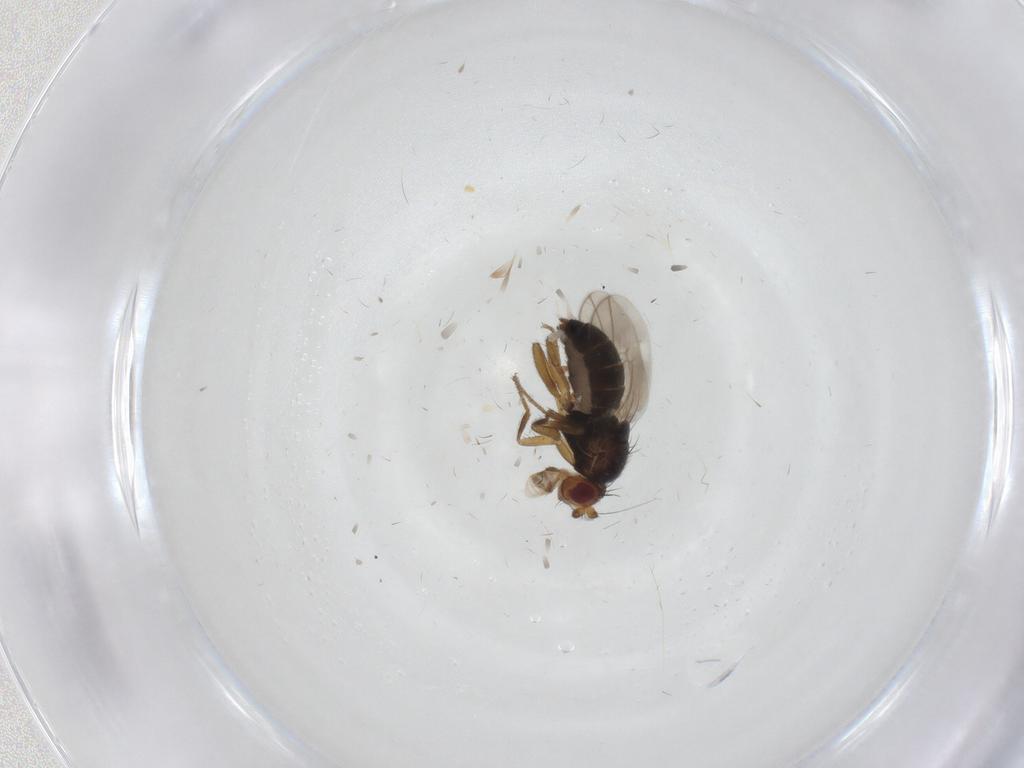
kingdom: Animalia
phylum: Arthropoda
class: Insecta
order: Diptera
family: Sphaeroceridae
